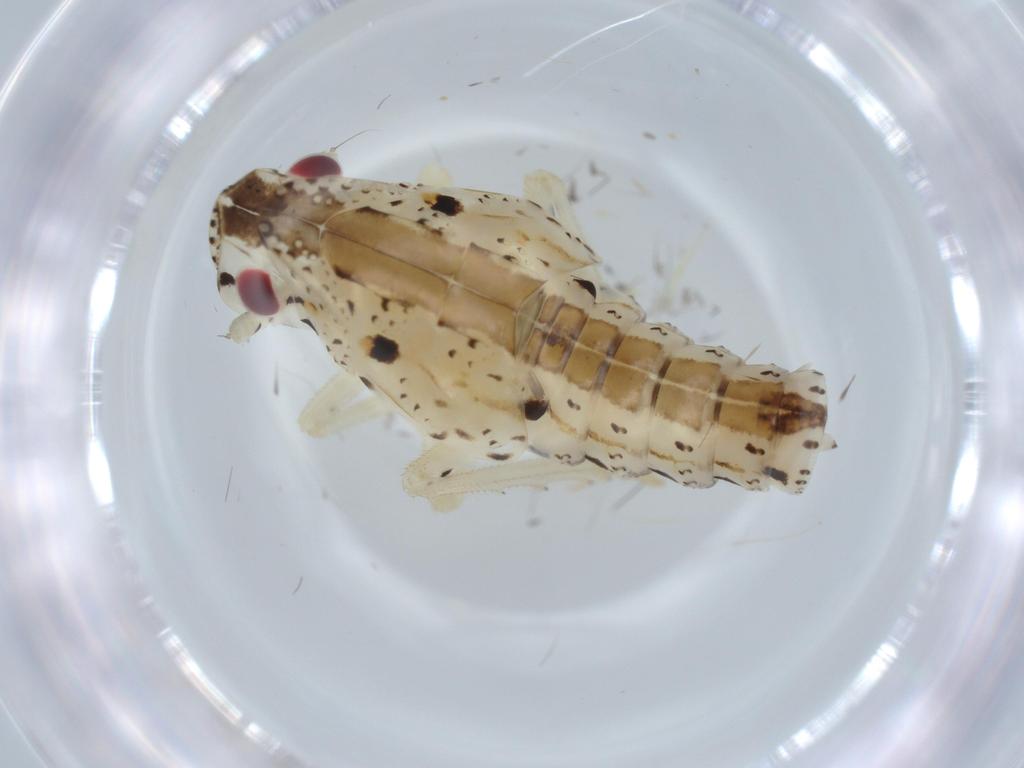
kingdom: Animalia
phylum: Arthropoda
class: Insecta
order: Hemiptera
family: Fulgoroidea_incertae_sedis
